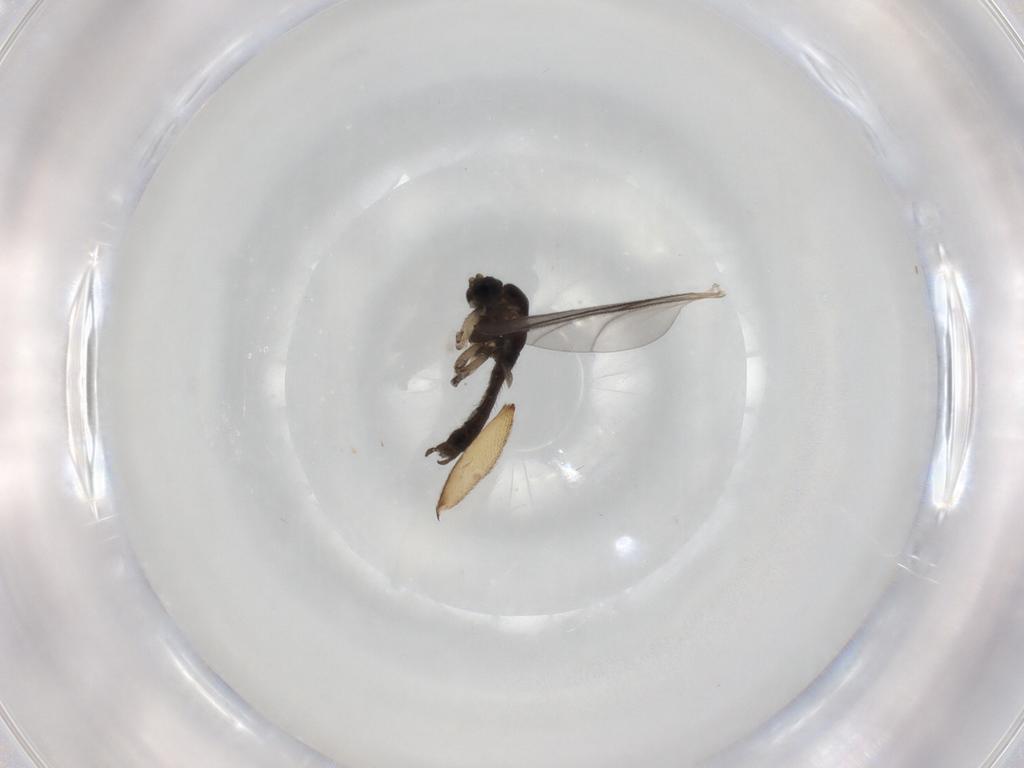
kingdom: Animalia
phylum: Arthropoda
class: Insecta
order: Diptera
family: Sciaridae
